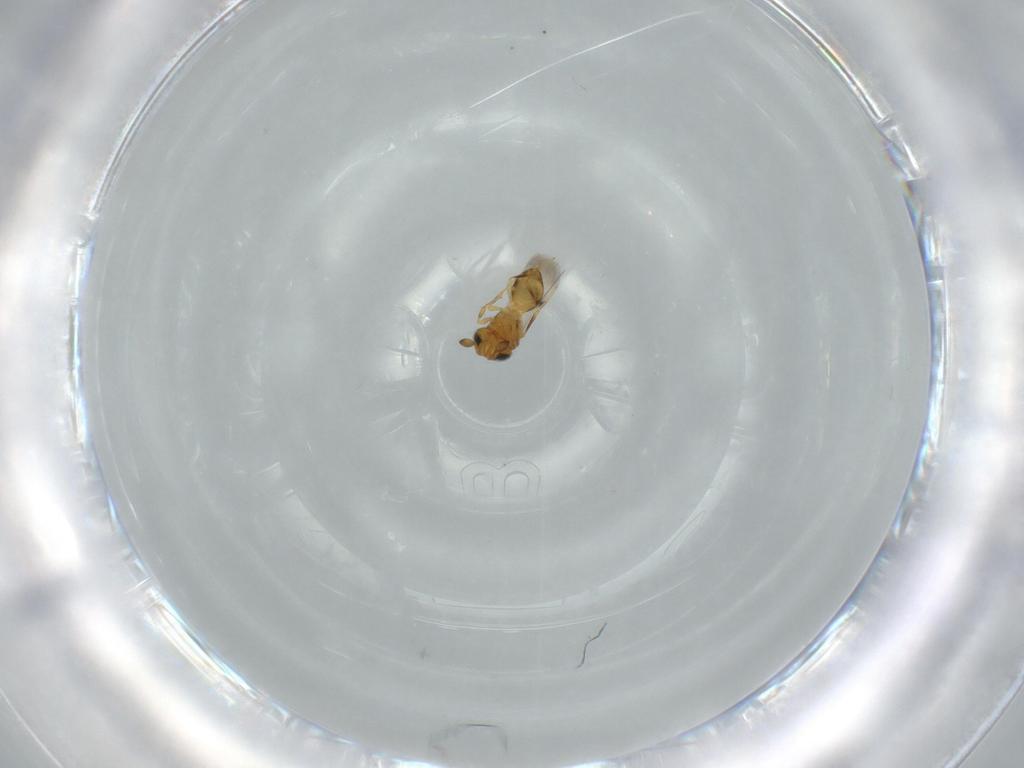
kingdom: Animalia
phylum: Arthropoda
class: Insecta
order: Hymenoptera
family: Scelionidae
